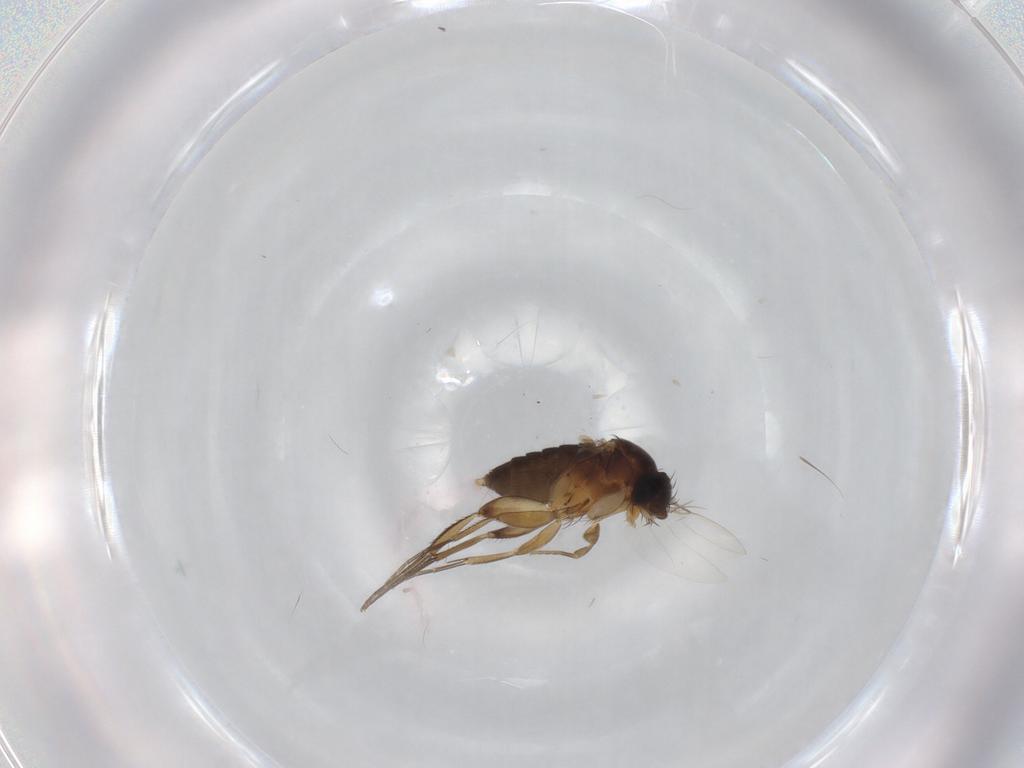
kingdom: Animalia
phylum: Arthropoda
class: Insecta
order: Diptera
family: Phoridae
